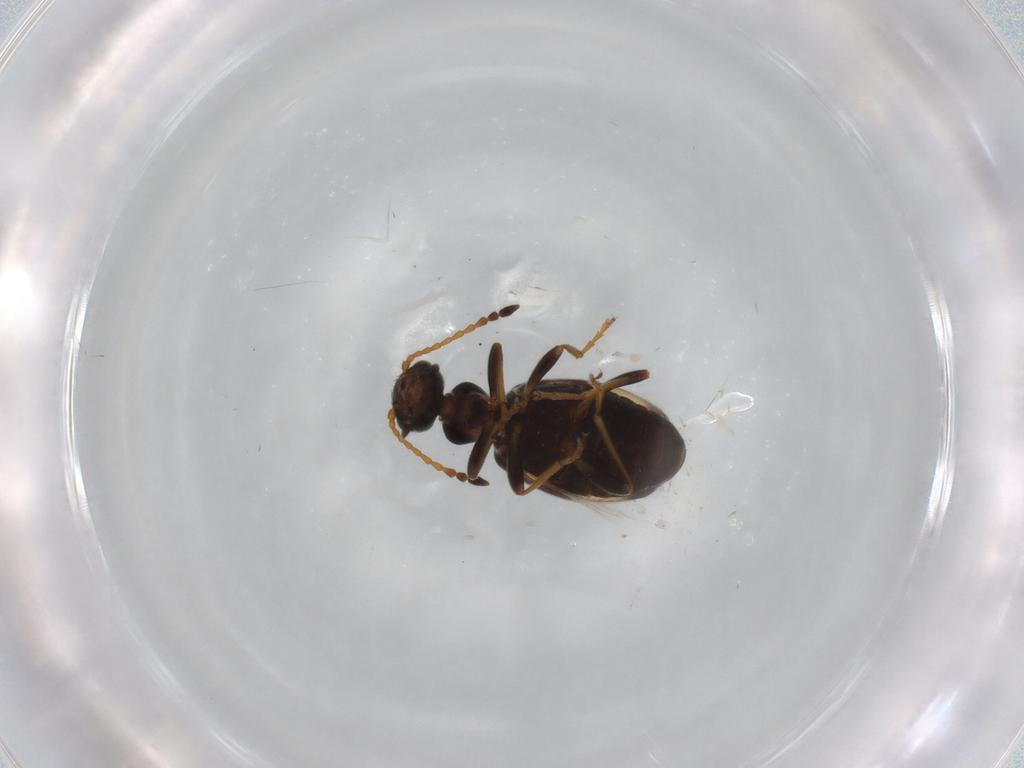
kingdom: Animalia
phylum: Arthropoda
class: Insecta
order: Coleoptera
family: Anthicidae
